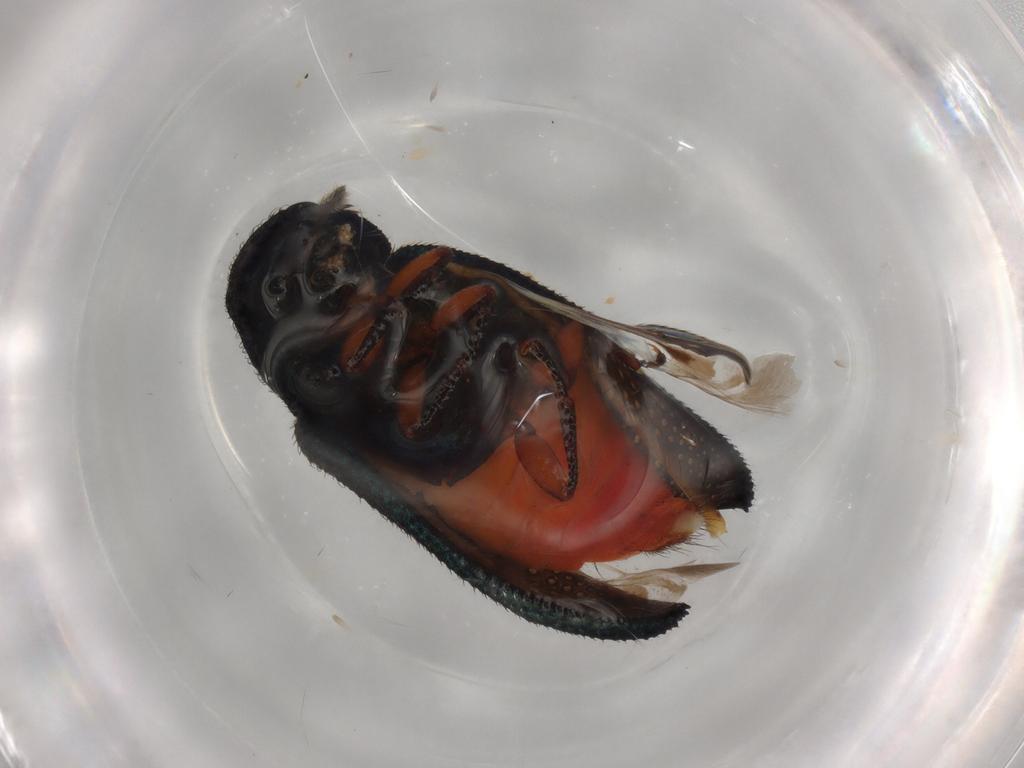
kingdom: Animalia
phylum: Arthropoda
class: Insecta
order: Coleoptera
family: Melyridae
